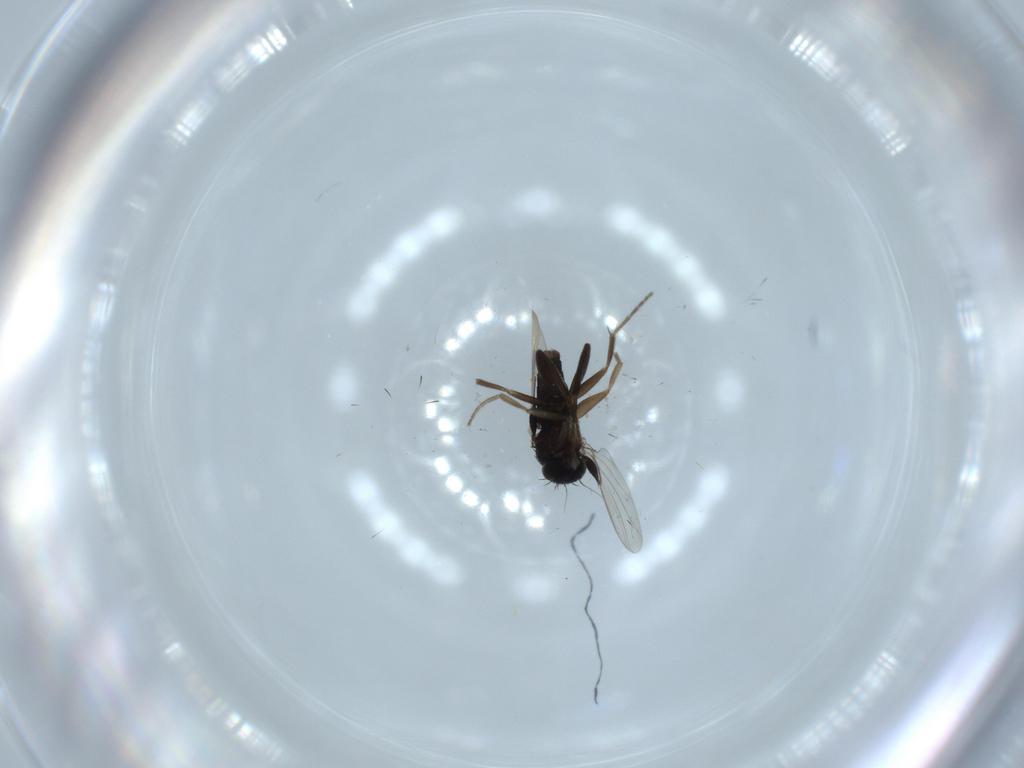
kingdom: Animalia
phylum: Arthropoda
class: Insecta
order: Diptera
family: Phoridae
